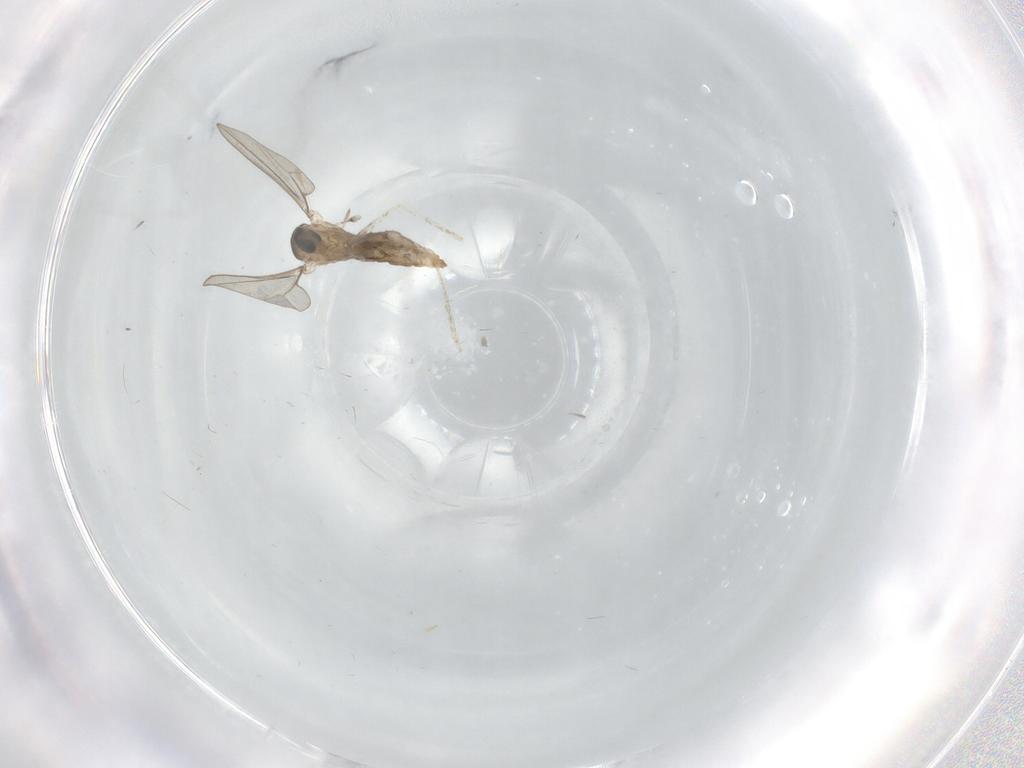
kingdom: Animalia
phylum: Arthropoda
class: Insecta
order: Diptera
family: Cecidomyiidae
